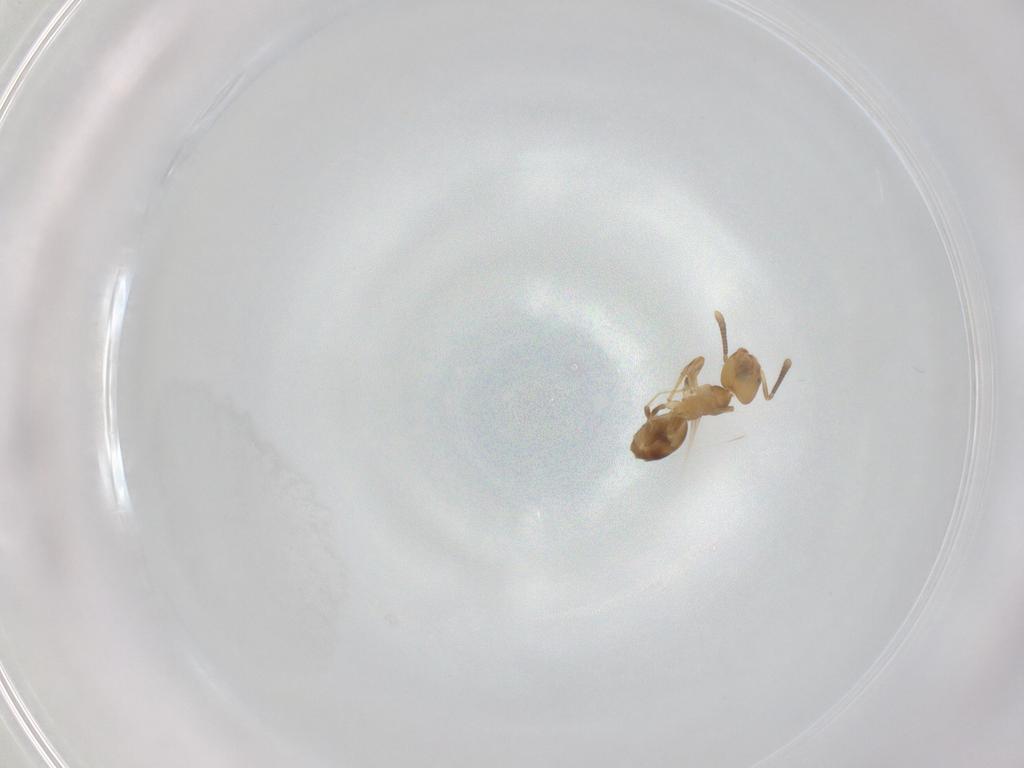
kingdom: Animalia
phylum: Arthropoda
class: Insecta
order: Hymenoptera
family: Formicidae
